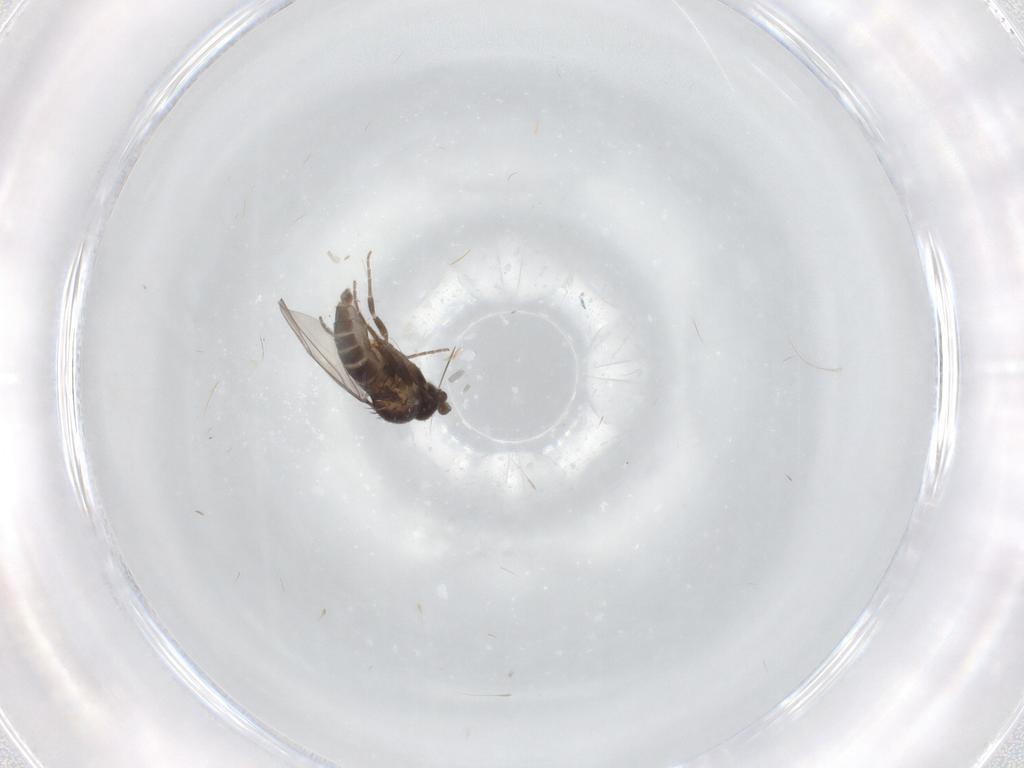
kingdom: Animalia
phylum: Arthropoda
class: Insecta
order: Diptera
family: Phoridae
